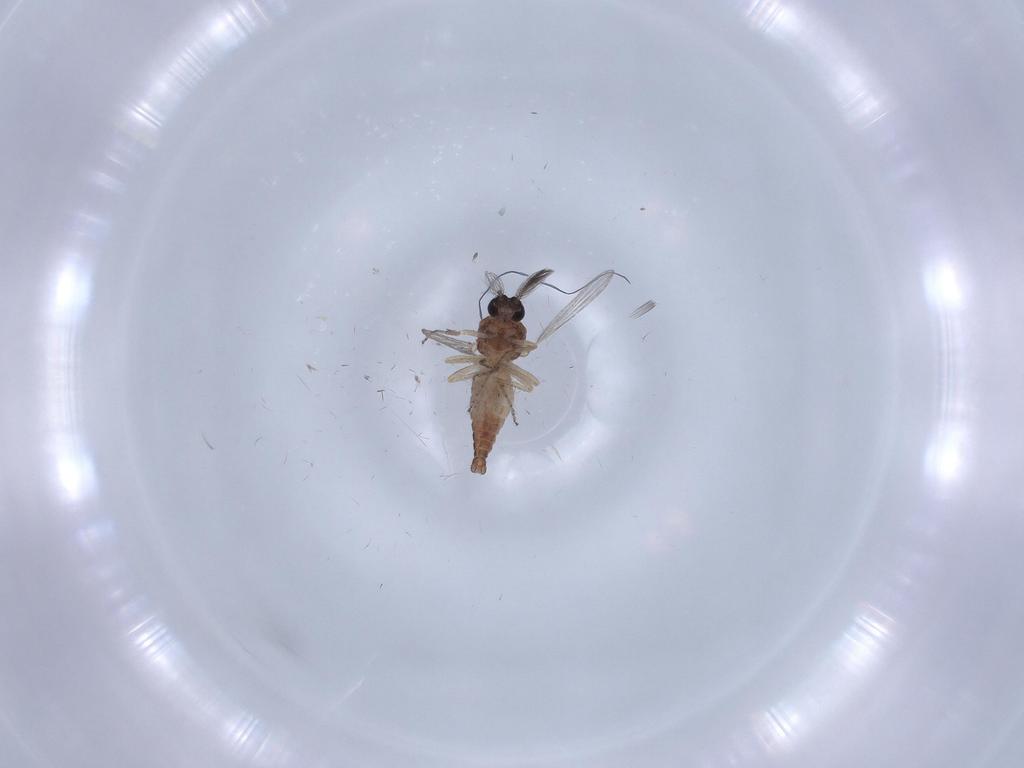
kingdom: Animalia
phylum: Arthropoda
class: Insecta
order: Diptera
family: Ceratopogonidae
